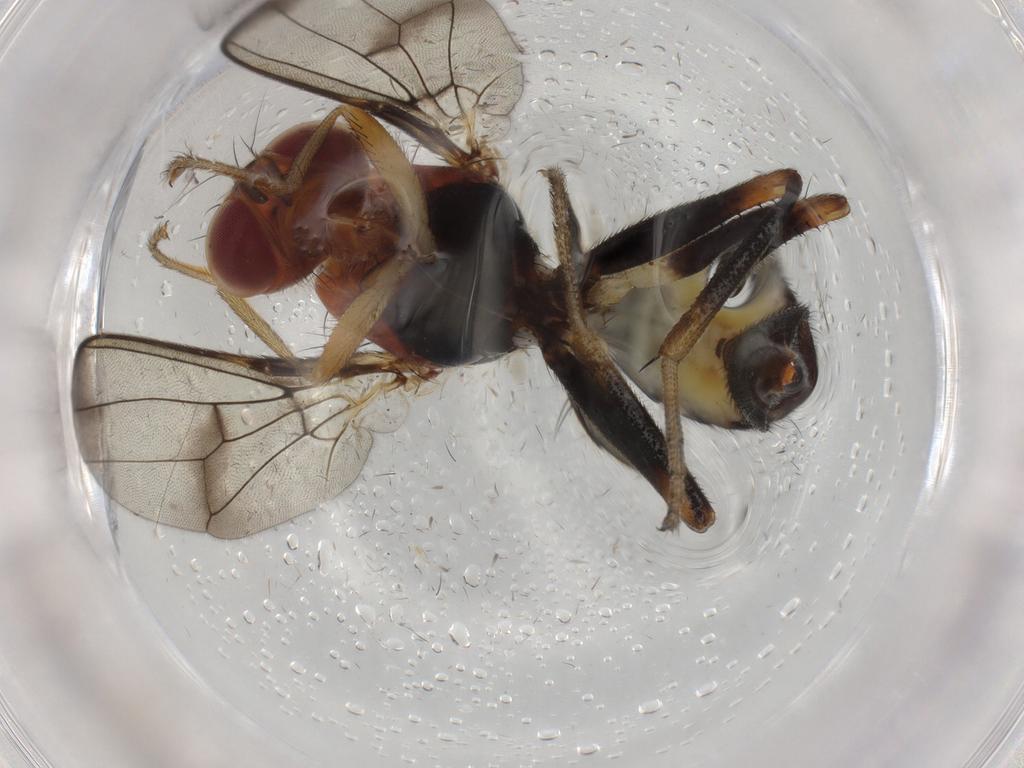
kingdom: Animalia
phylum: Arthropoda
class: Insecta
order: Diptera
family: Richardiidae
